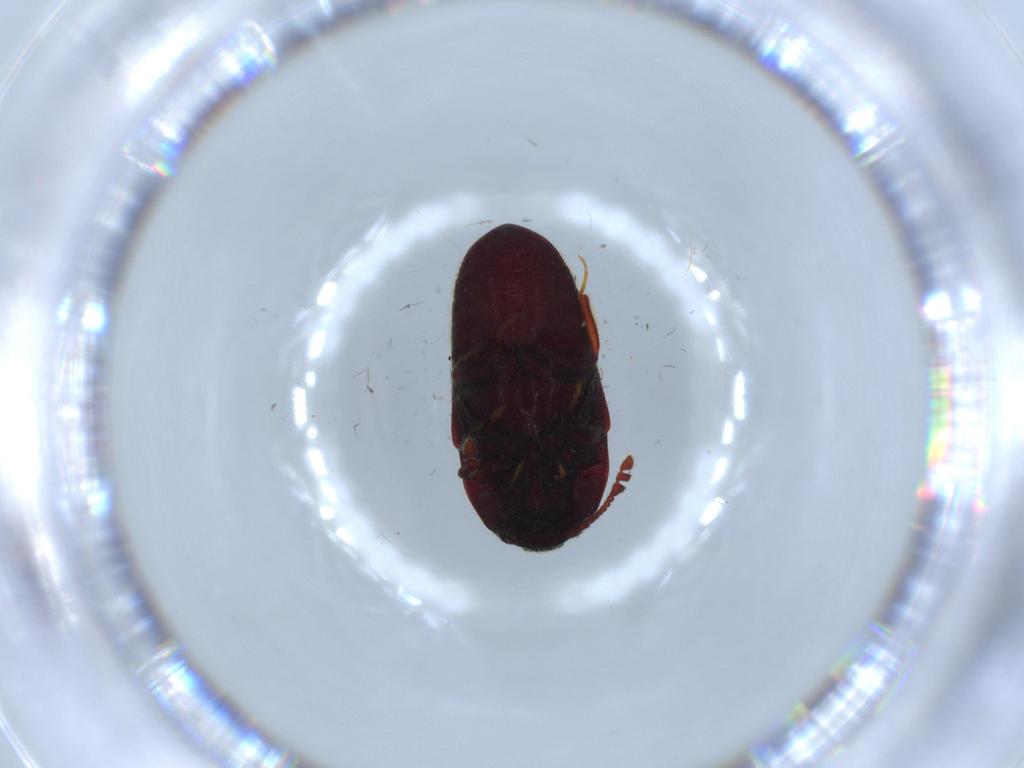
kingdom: Animalia
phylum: Arthropoda
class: Insecta
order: Coleoptera
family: Throscidae
